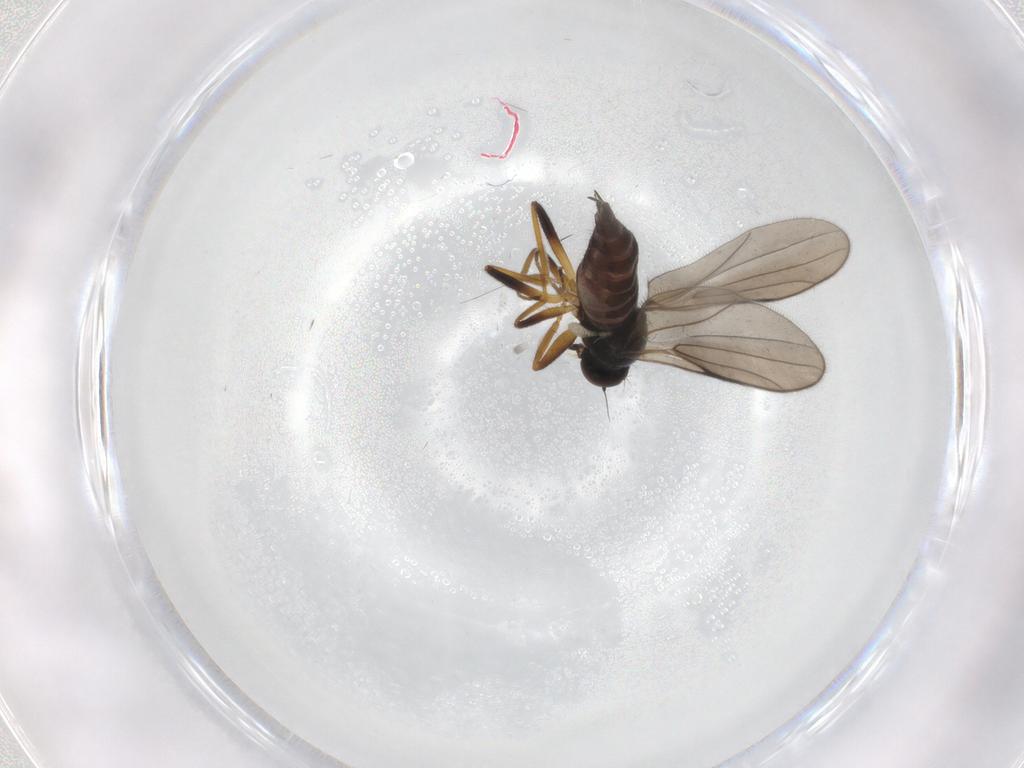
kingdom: Animalia
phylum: Arthropoda
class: Insecta
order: Diptera
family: Hybotidae
